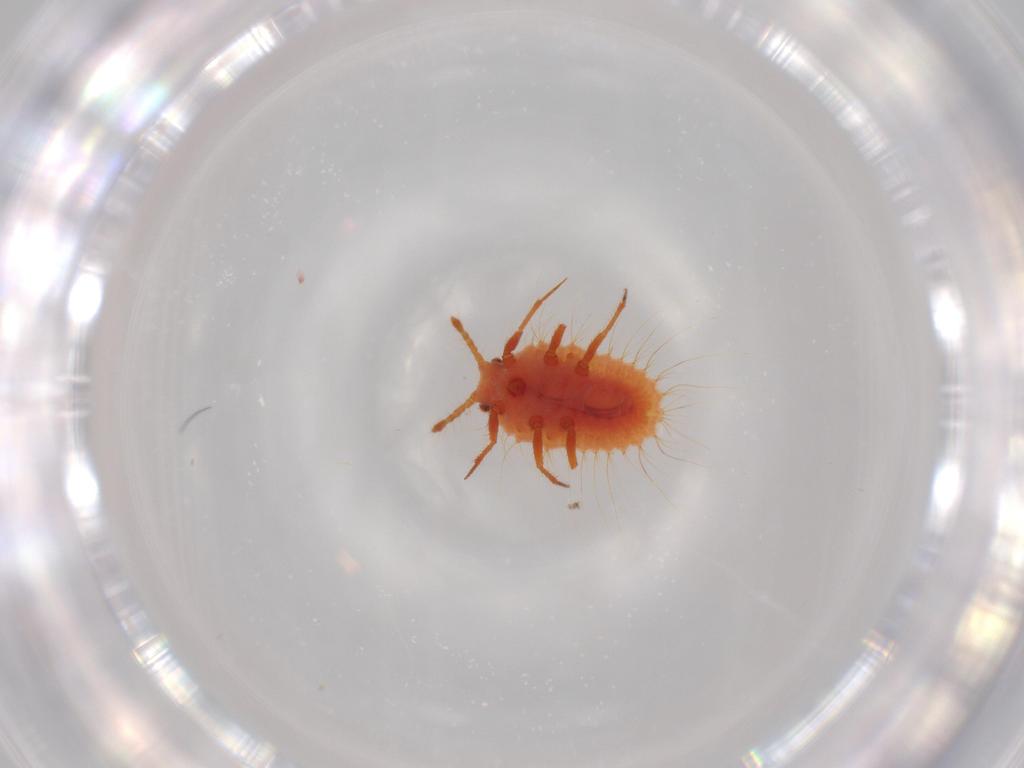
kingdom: Animalia
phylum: Arthropoda
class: Insecta
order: Hemiptera
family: Coccoidea_incertae_sedis
